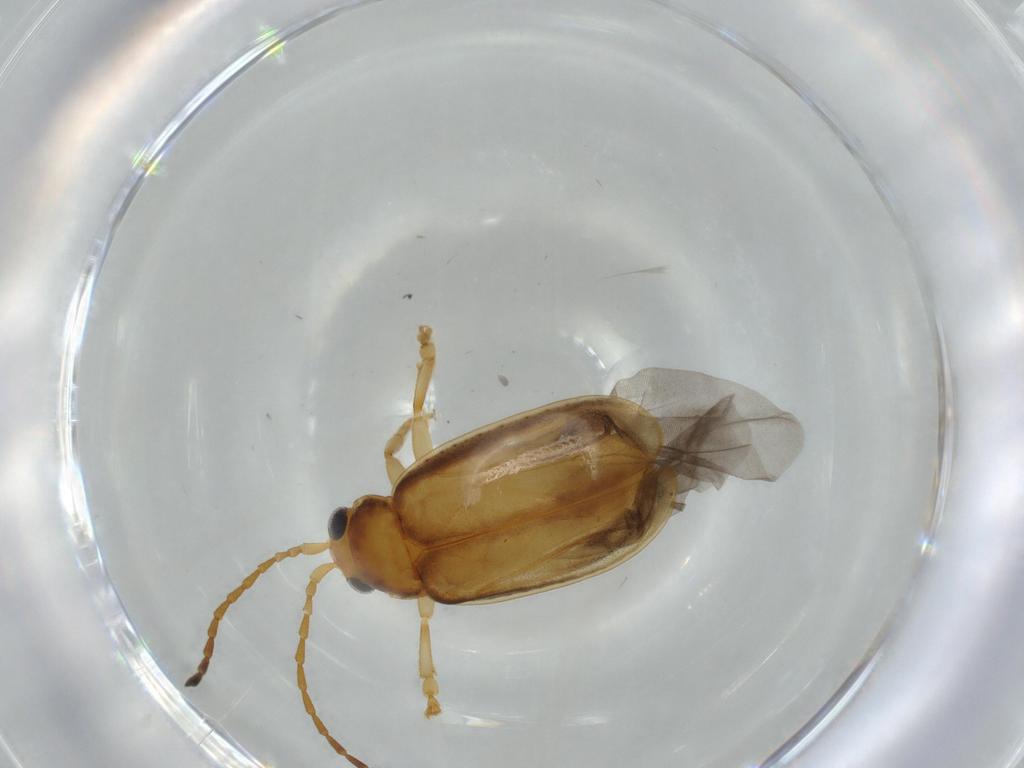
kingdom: Animalia
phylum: Arthropoda
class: Insecta
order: Coleoptera
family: Chrysomelidae
